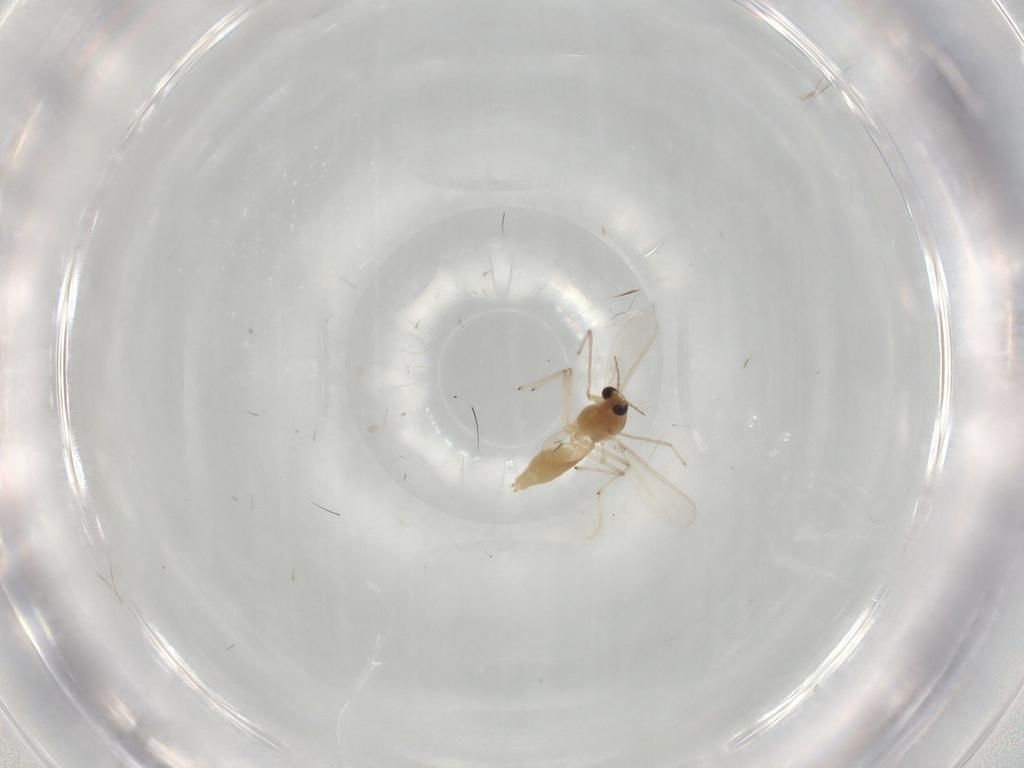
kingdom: Animalia
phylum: Arthropoda
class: Insecta
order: Diptera
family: Chironomidae
